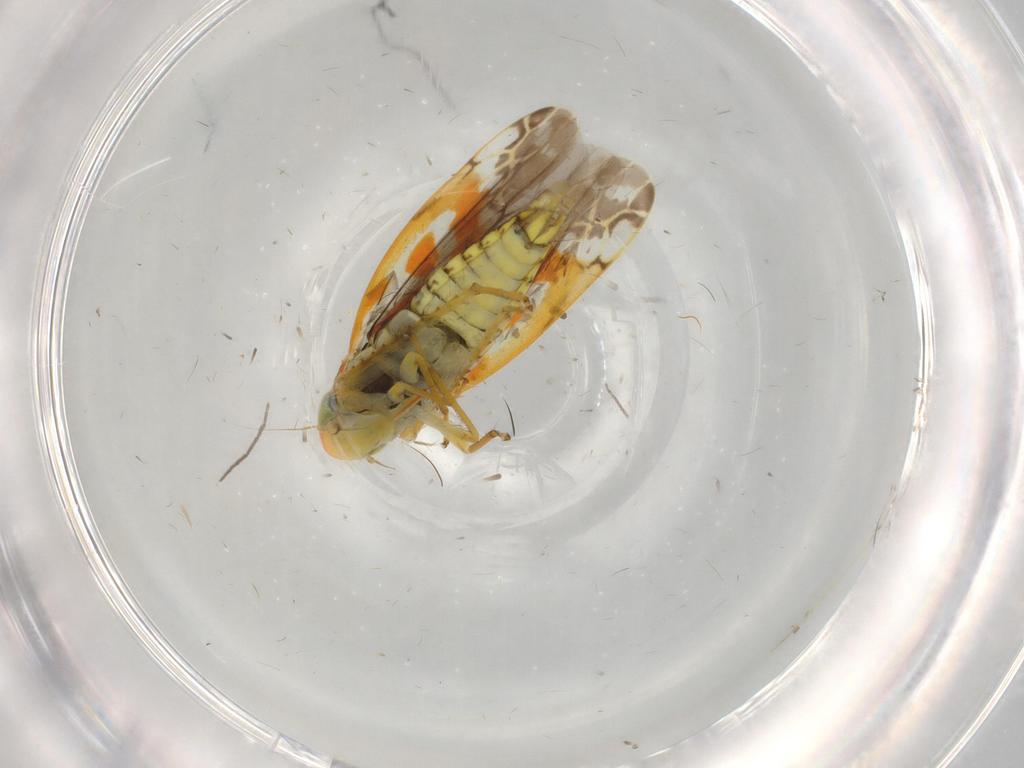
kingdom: Animalia
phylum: Arthropoda
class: Insecta
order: Hemiptera
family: Cicadellidae
